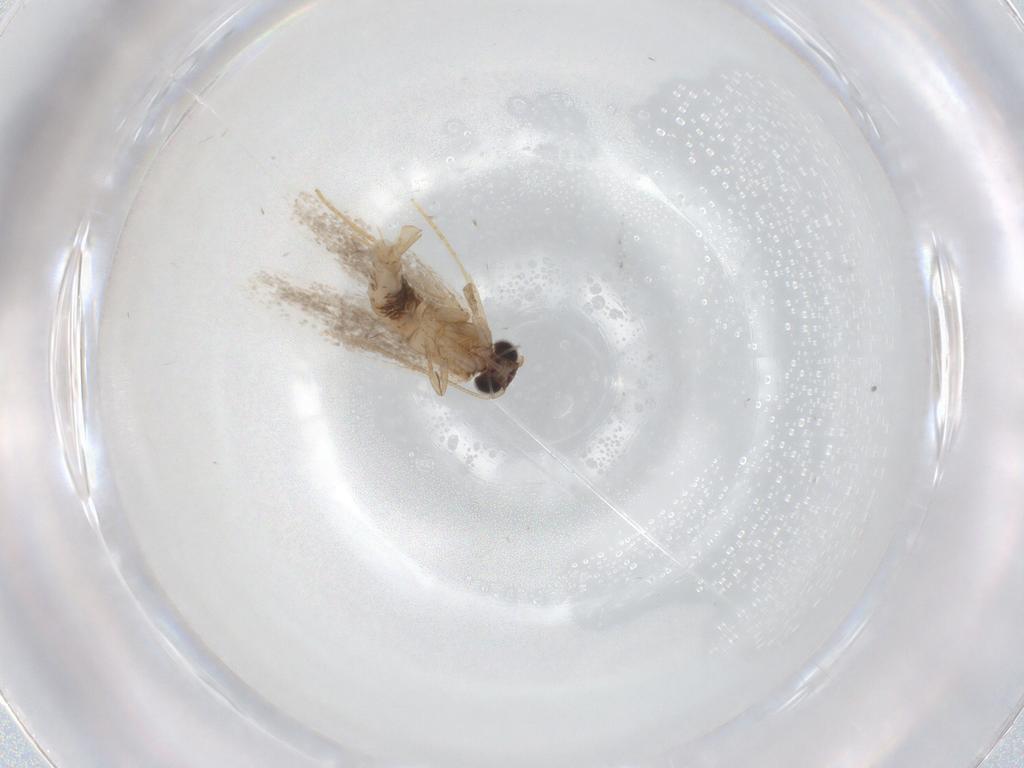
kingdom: Animalia
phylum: Arthropoda
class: Insecta
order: Lepidoptera
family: Tineidae
